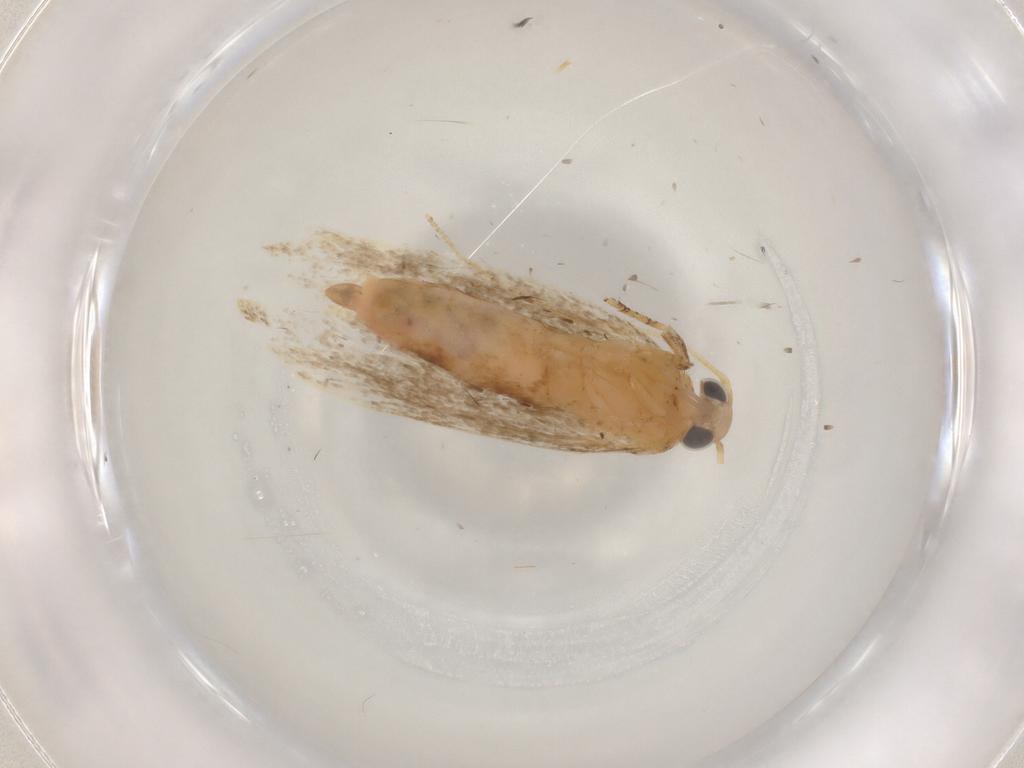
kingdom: Animalia
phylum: Arthropoda
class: Insecta
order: Lepidoptera
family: Autostichidae
